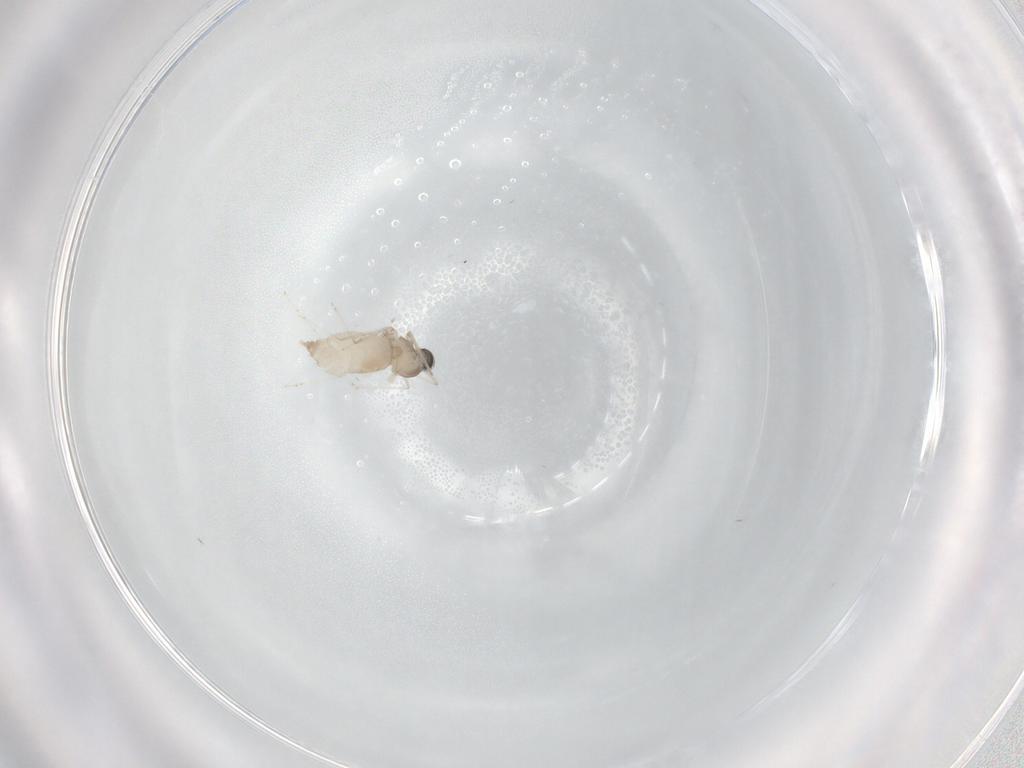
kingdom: Animalia
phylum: Arthropoda
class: Insecta
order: Diptera
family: Cecidomyiidae
